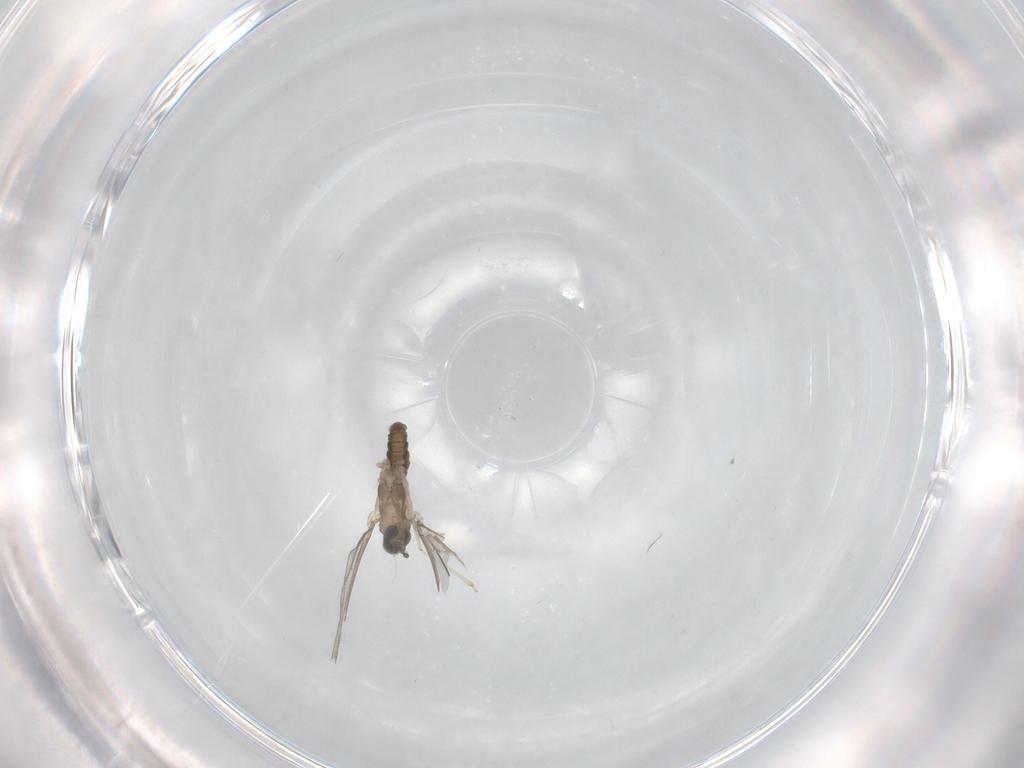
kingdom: Animalia
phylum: Arthropoda
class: Insecta
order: Diptera
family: Cecidomyiidae
